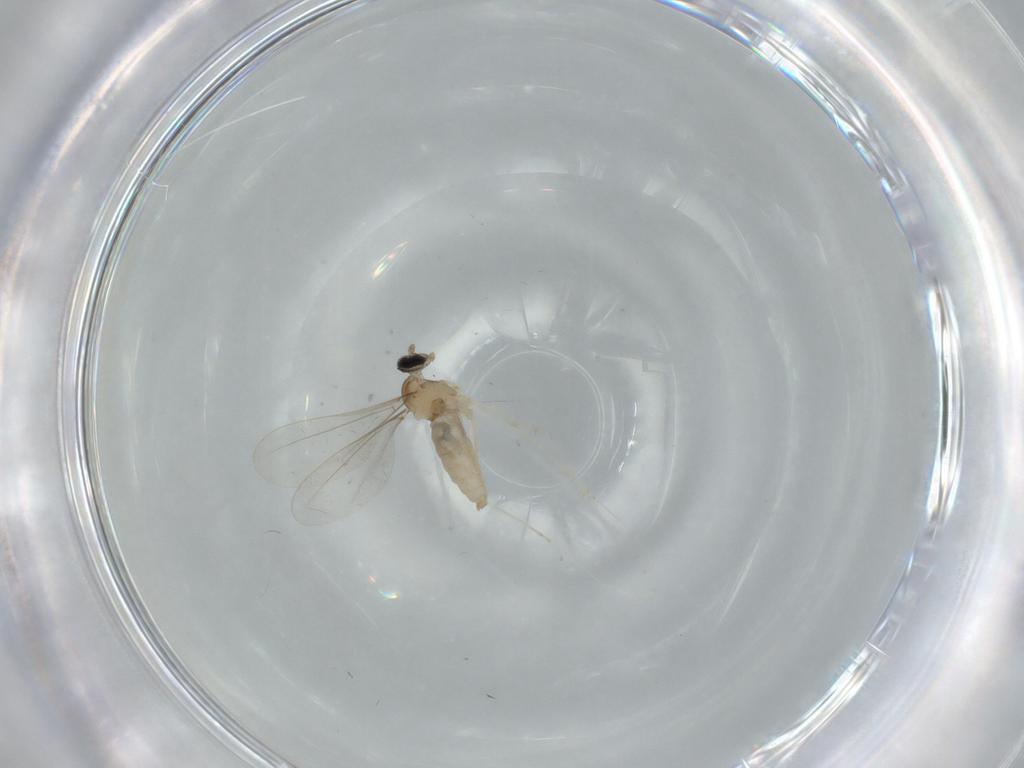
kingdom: Animalia
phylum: Arthropoda
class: Insecta
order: Diptera
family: Cecidomyiidae
